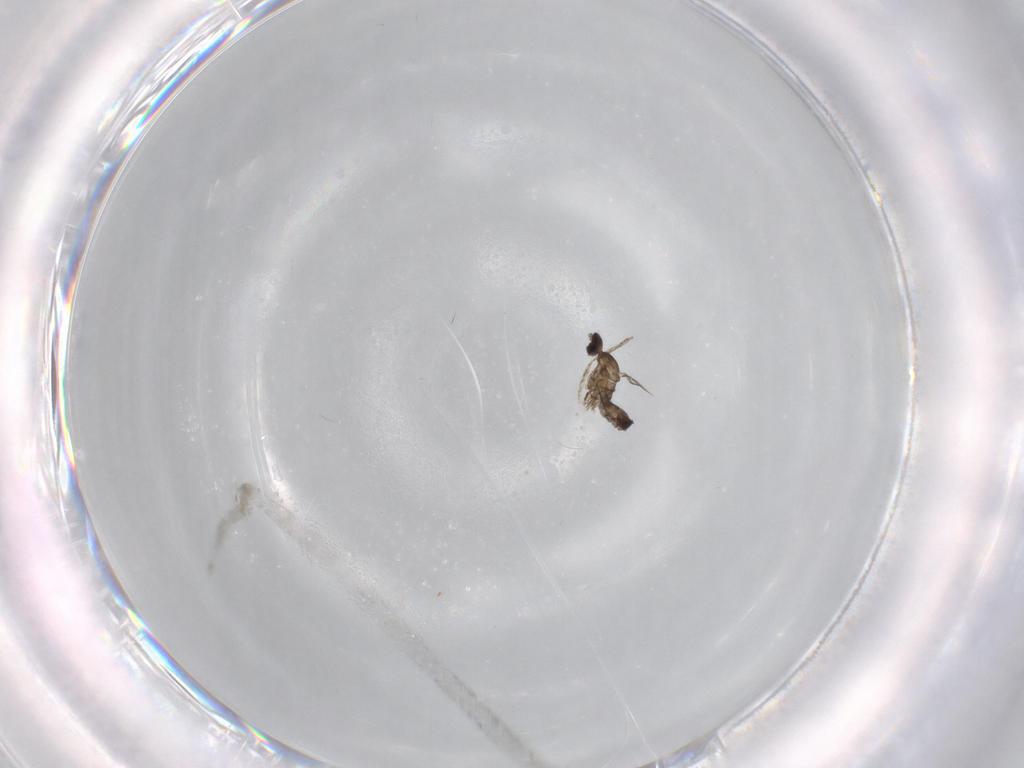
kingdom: Animalia
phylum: Arthropoda
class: Insecta
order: Diptera
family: Cecidomyiidae
